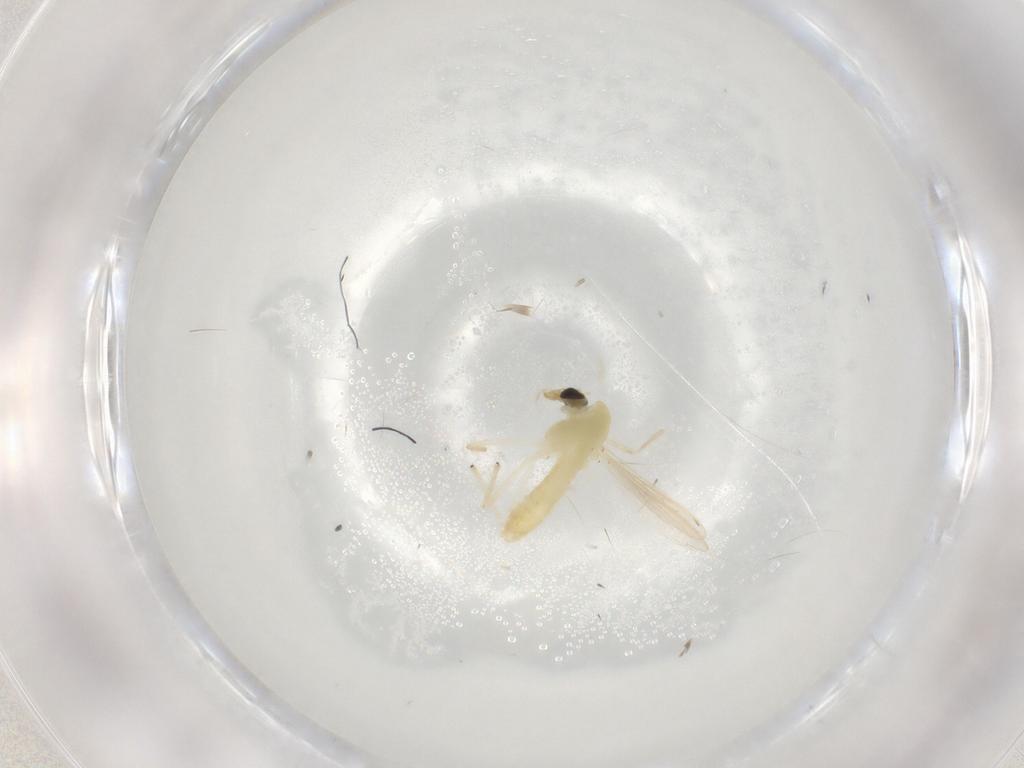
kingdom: Animalia
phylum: Arthropoda
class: Insecta
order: Diptera
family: Chironomidae
